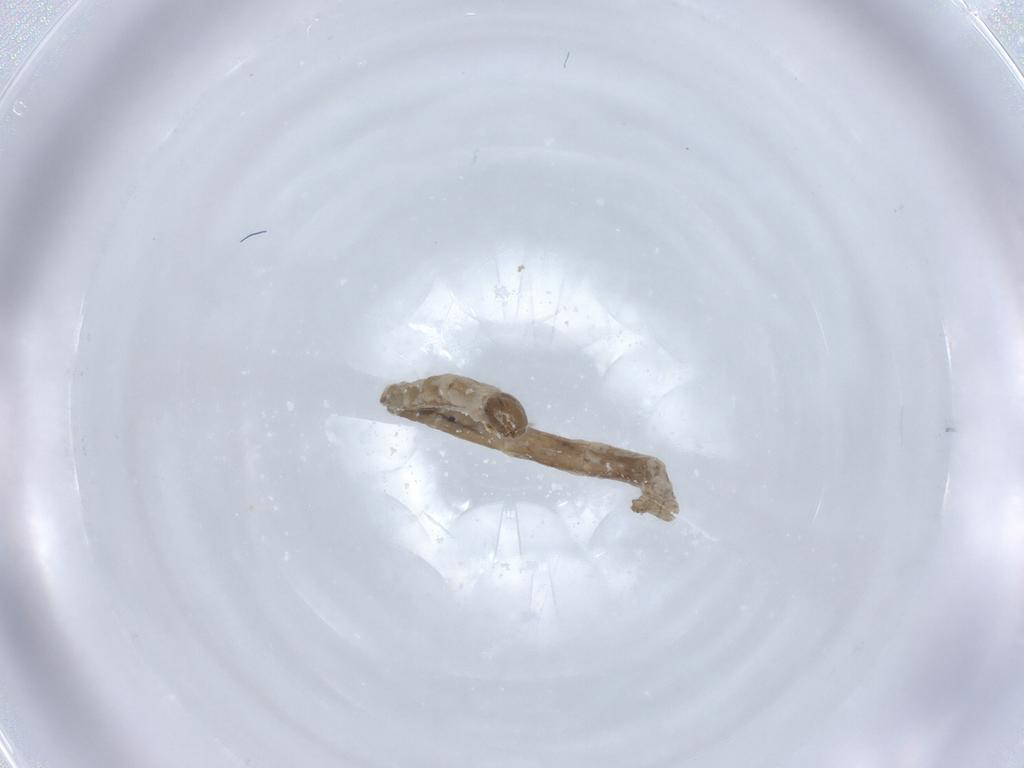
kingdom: Animalia
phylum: Arthropoda
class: Insecta
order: Diptera
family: Chironomidae
